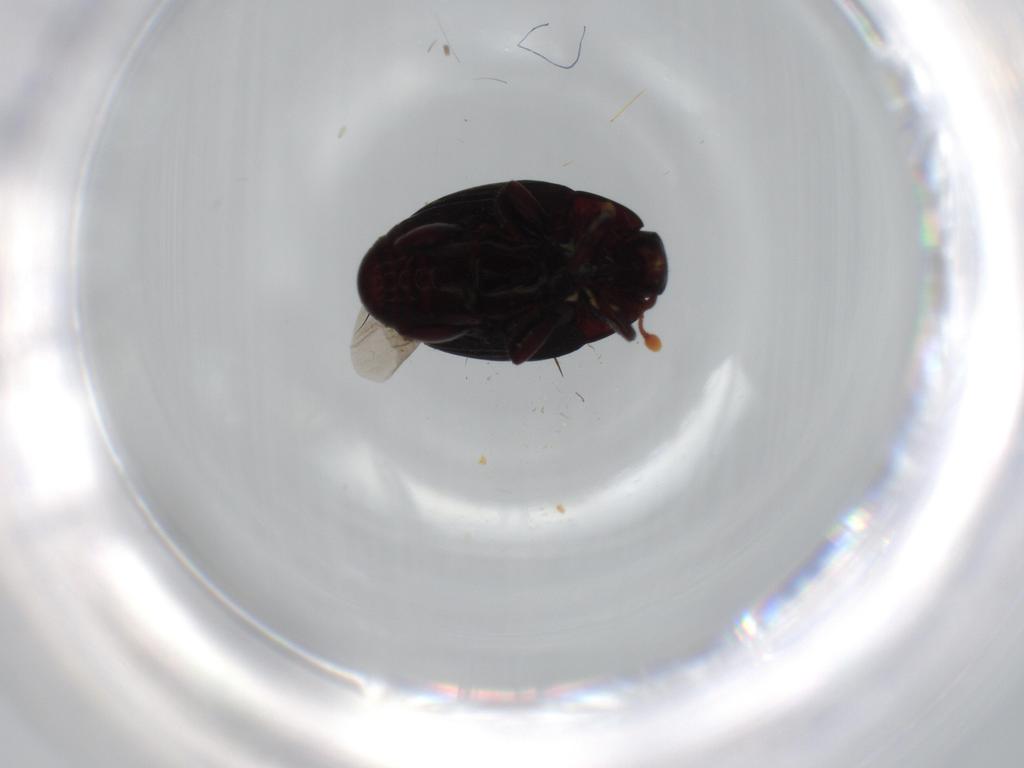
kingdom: Animalia
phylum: Arthropoda
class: Insecta
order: Coleoptera
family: Histeridae
